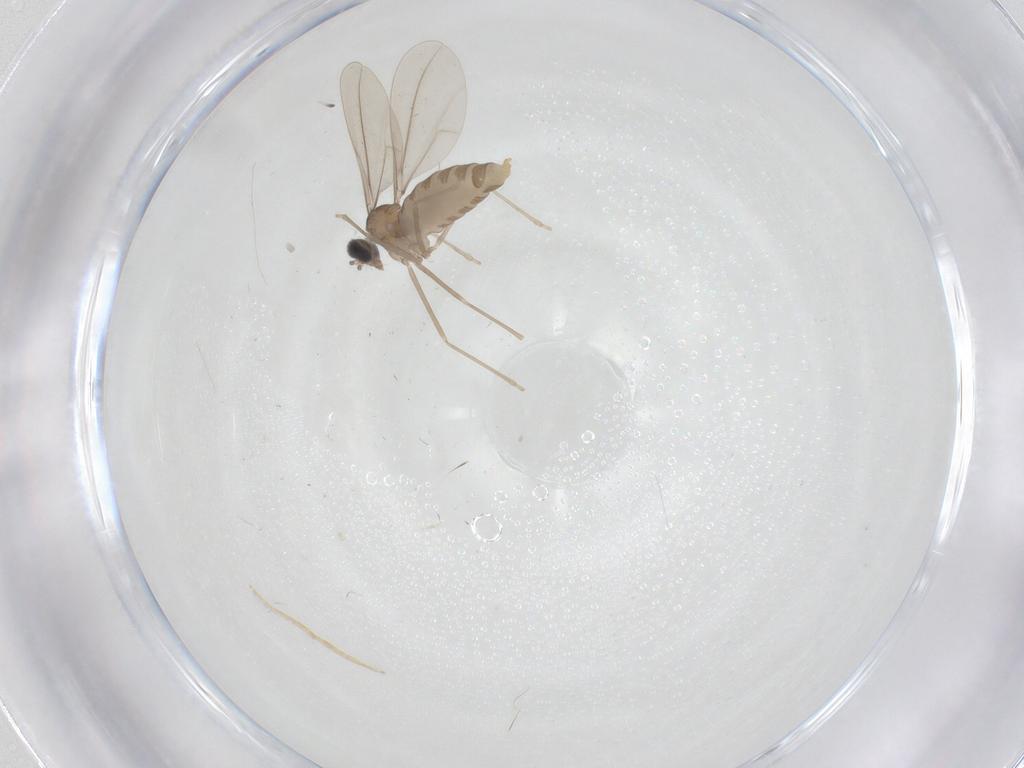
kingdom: Animalia
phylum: Arthropoda
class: Insecta
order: Diptera
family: Cecidomyiidae
